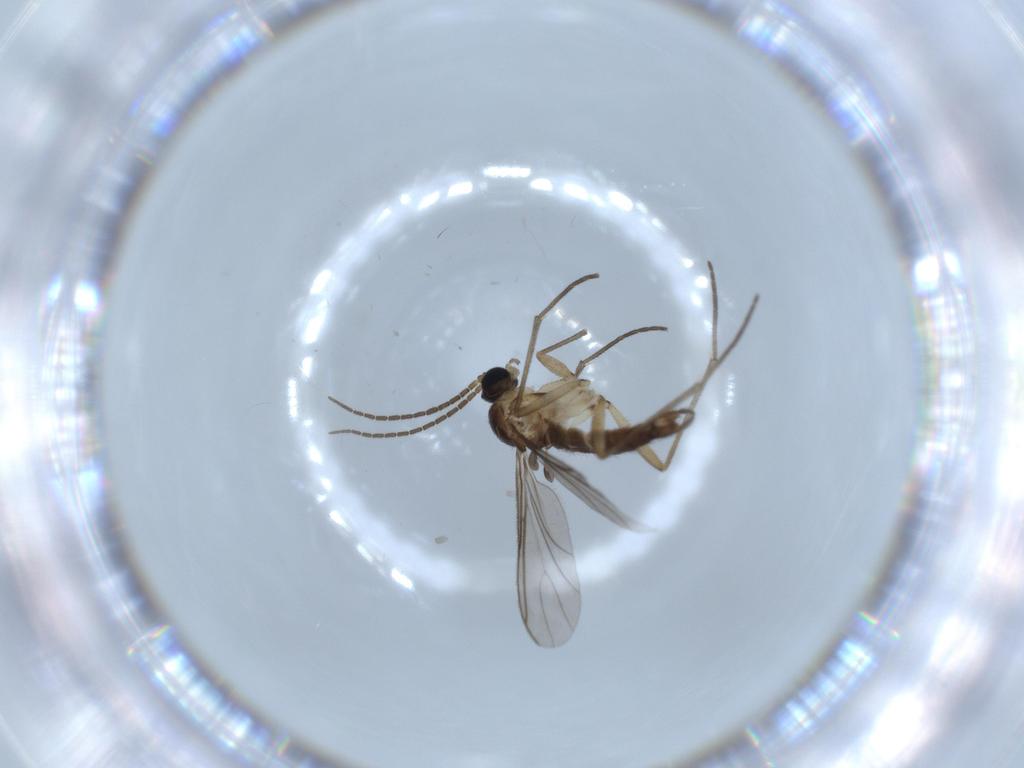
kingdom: Animalia
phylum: Arthropoda
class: Insecta
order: Diptera
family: Sciaridae
